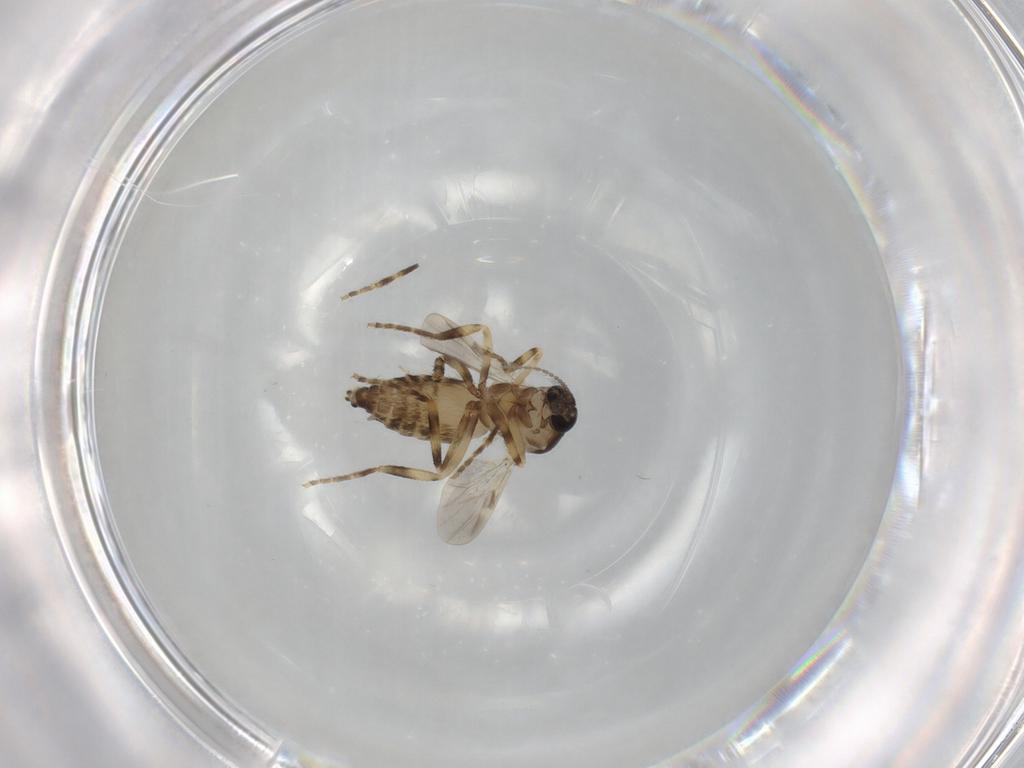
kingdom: Animalia
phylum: Arthropoda
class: Insecta
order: Diptera
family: Ceratopogonidae
